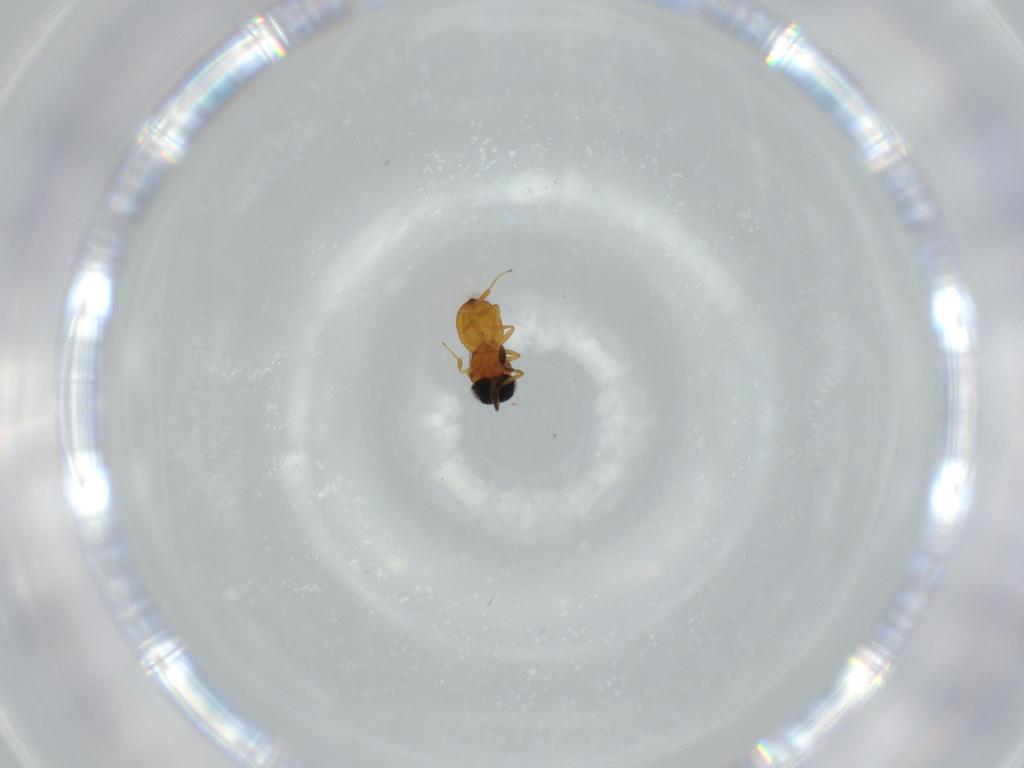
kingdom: Animalia
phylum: Arthropoda
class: Insecta
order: Hymenoptera
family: Scelionidae
